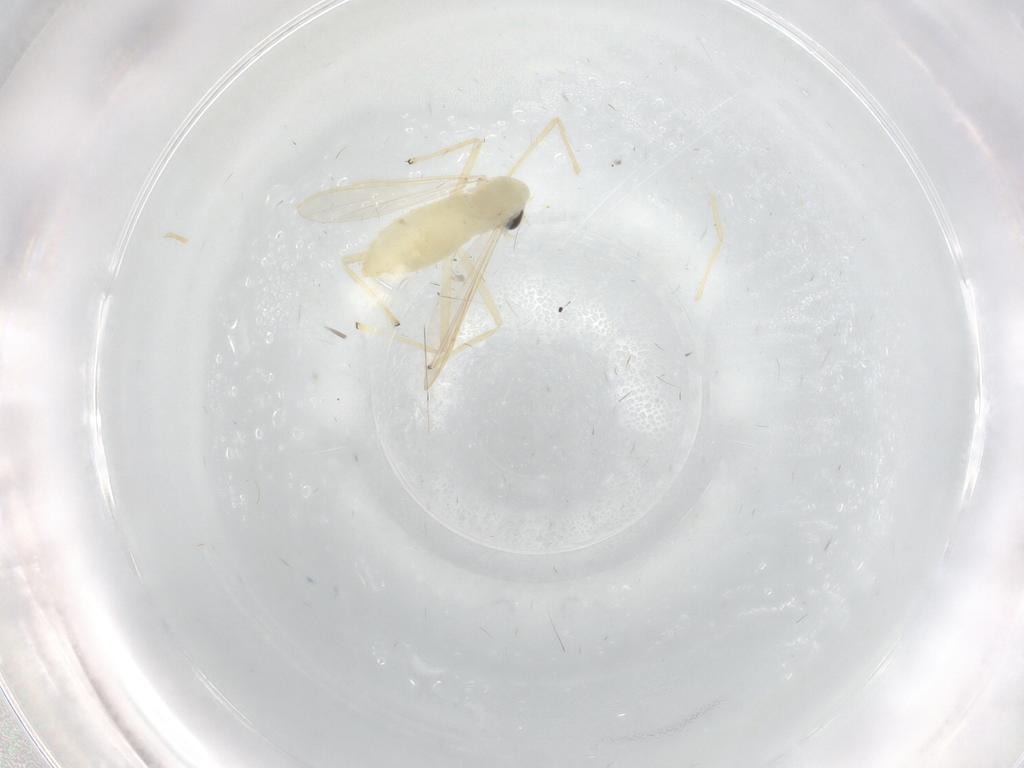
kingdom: Animalia
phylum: Arthropoda
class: Insecta
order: Diptera
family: Chironomidae
